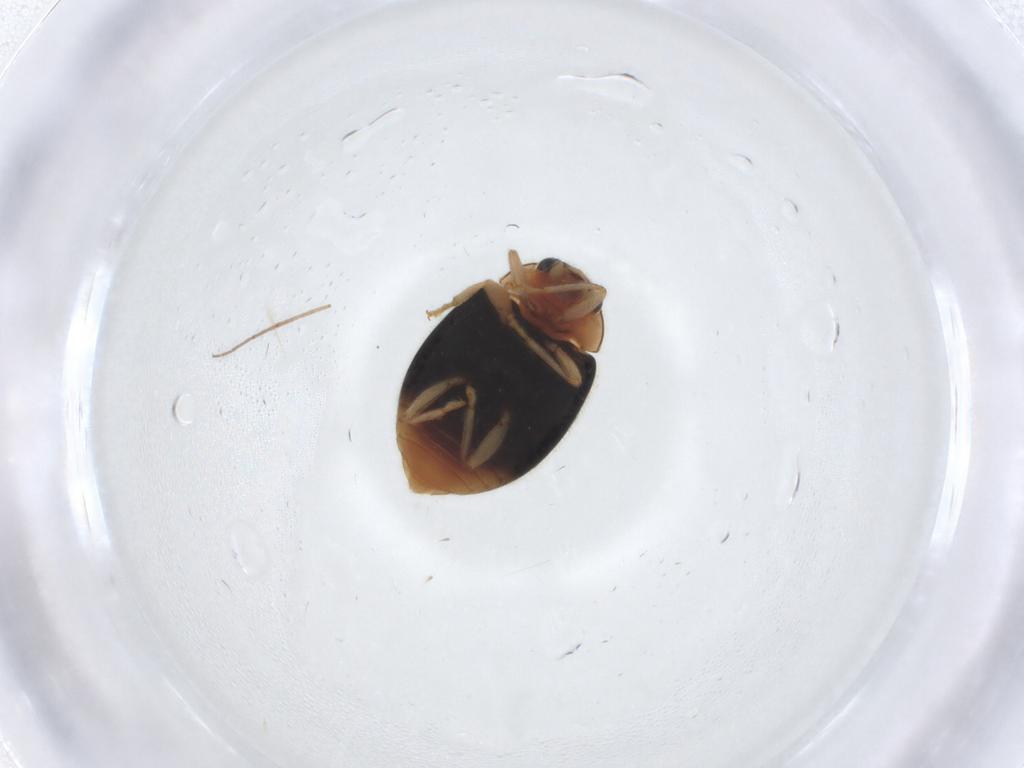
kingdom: Animalia
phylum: Arthropoda
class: Insecta
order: Coleoptera
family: Coccinellidae
